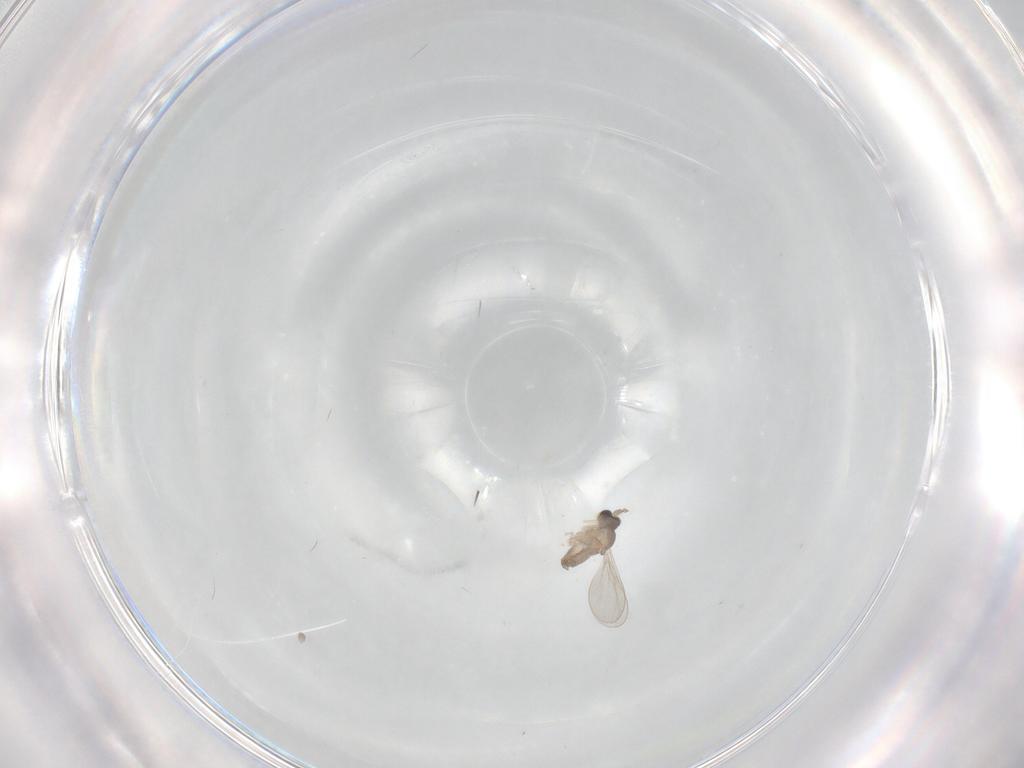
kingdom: Animalia
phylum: Arthropoda
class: Insecta
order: Diptera
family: Cecidomyiidae
